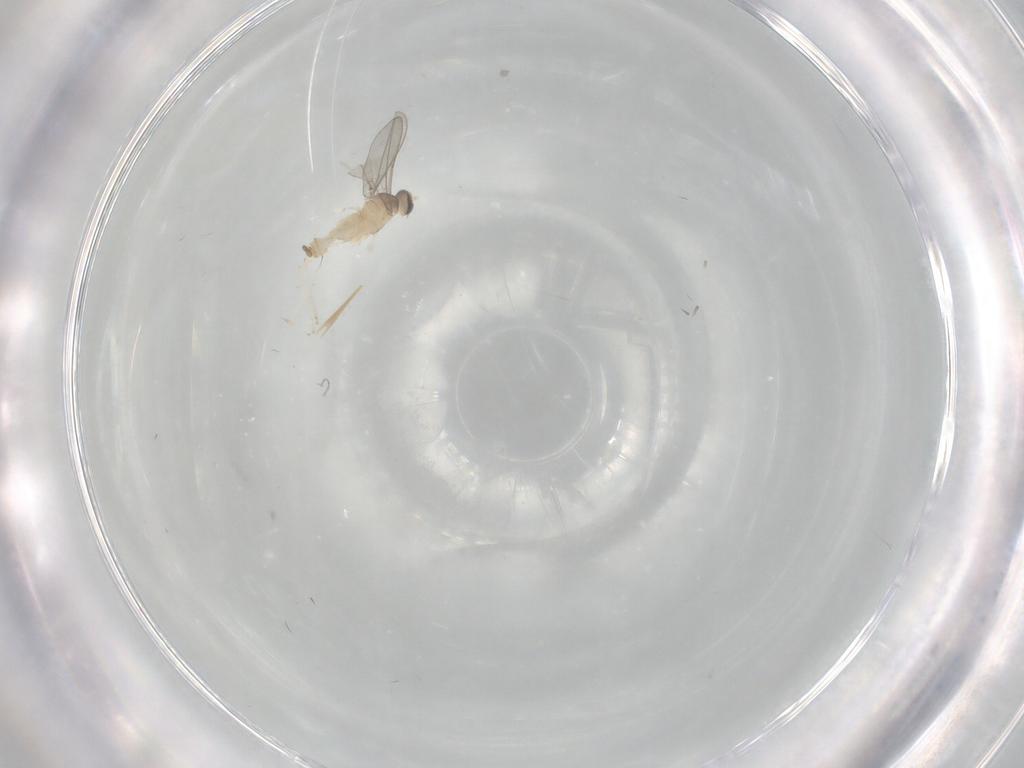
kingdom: Animalia
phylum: Arthropoda
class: Insecta
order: Diptera
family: Cecidomyiidae
